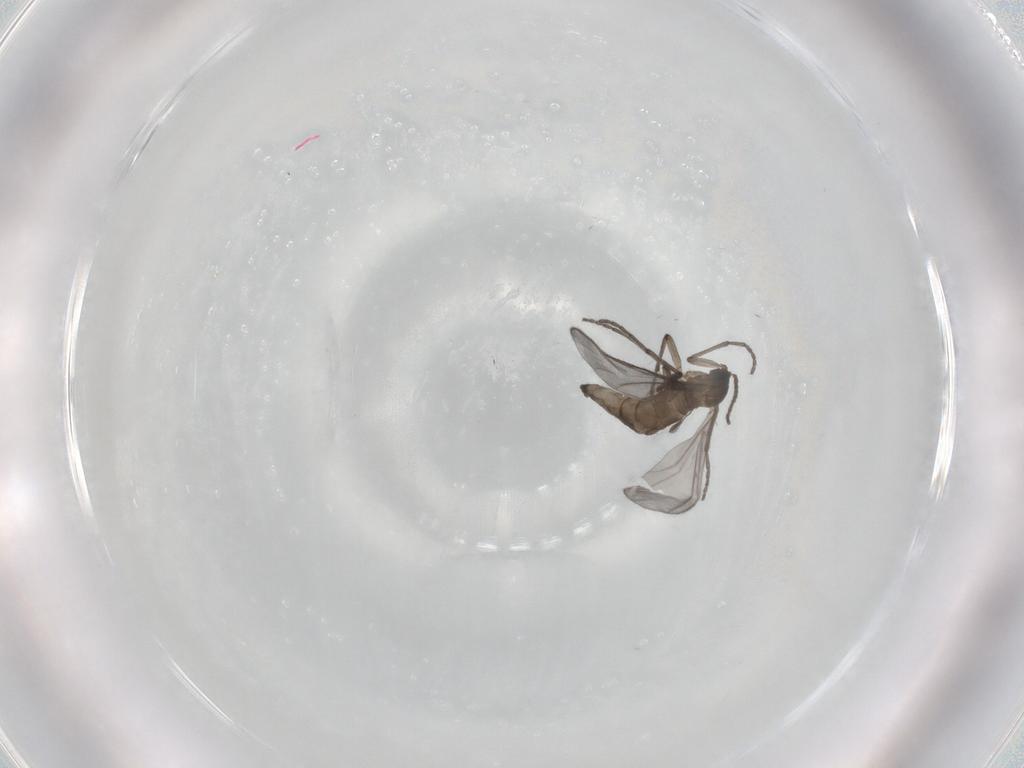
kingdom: Animalia
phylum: Arthropoda
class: Insecta
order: Diptera
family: Sciaridae
